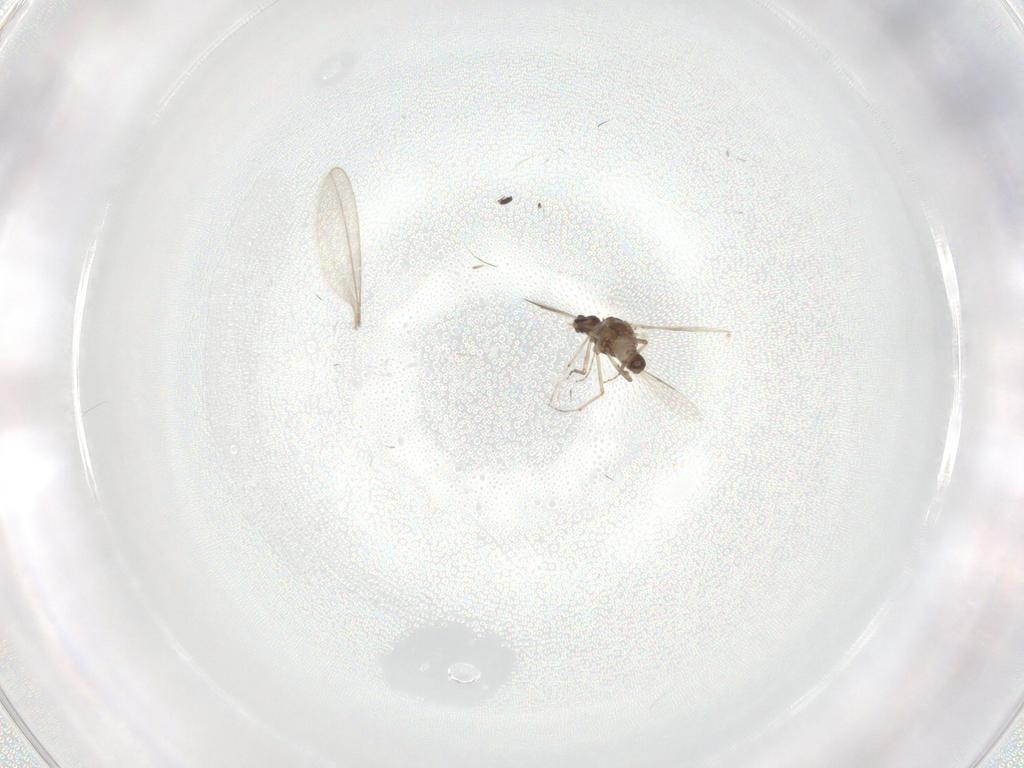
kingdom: Animalia
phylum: Arthropoda
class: Insecta
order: Diptera
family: Ceratopogonidae
